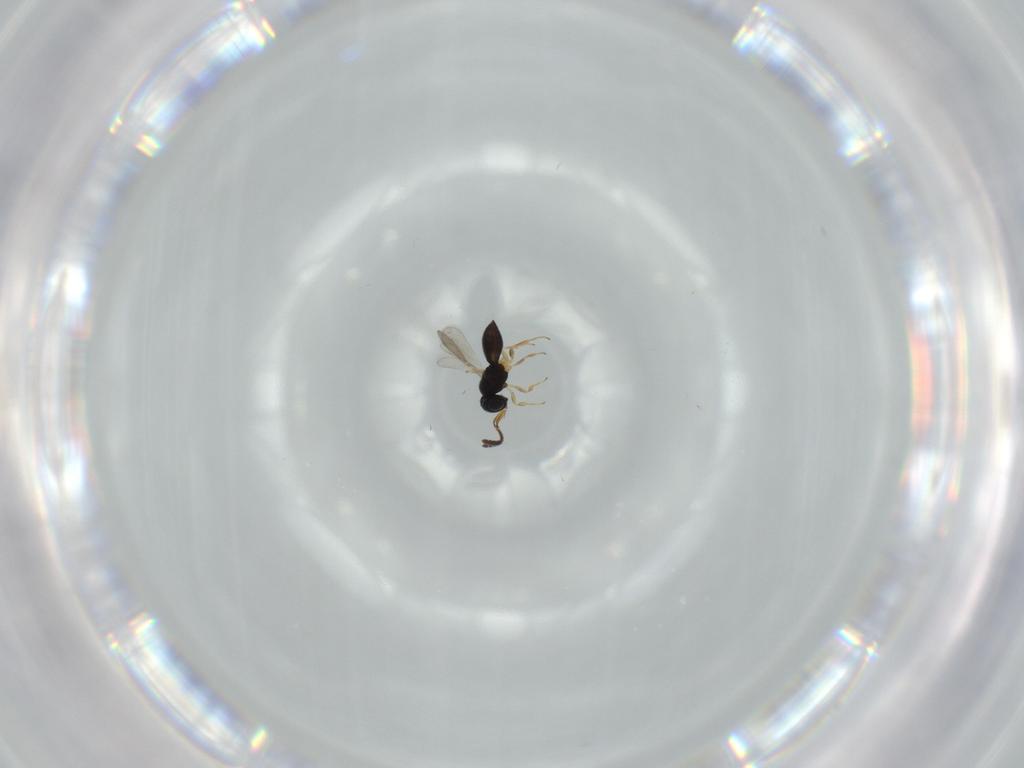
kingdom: Animalia
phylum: Arthropoda
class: Insecta
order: Hymenoptera
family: Scelionidae
